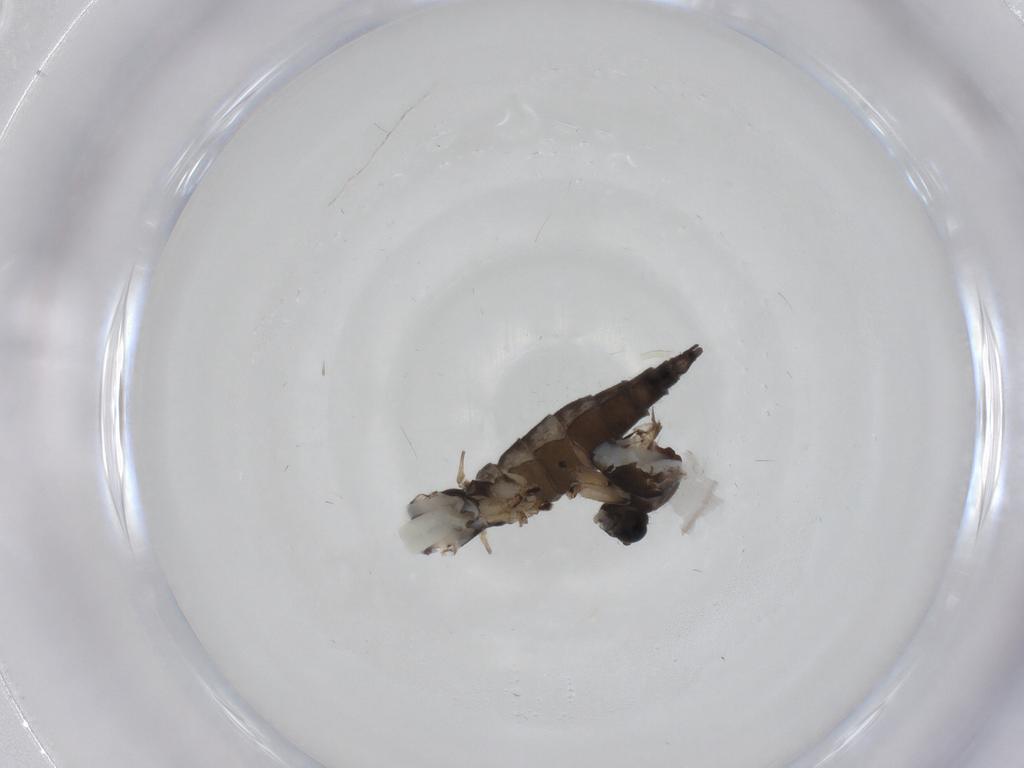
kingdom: Animalia
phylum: Arthropoda
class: Insecta
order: Diptera
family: Sciaridae
